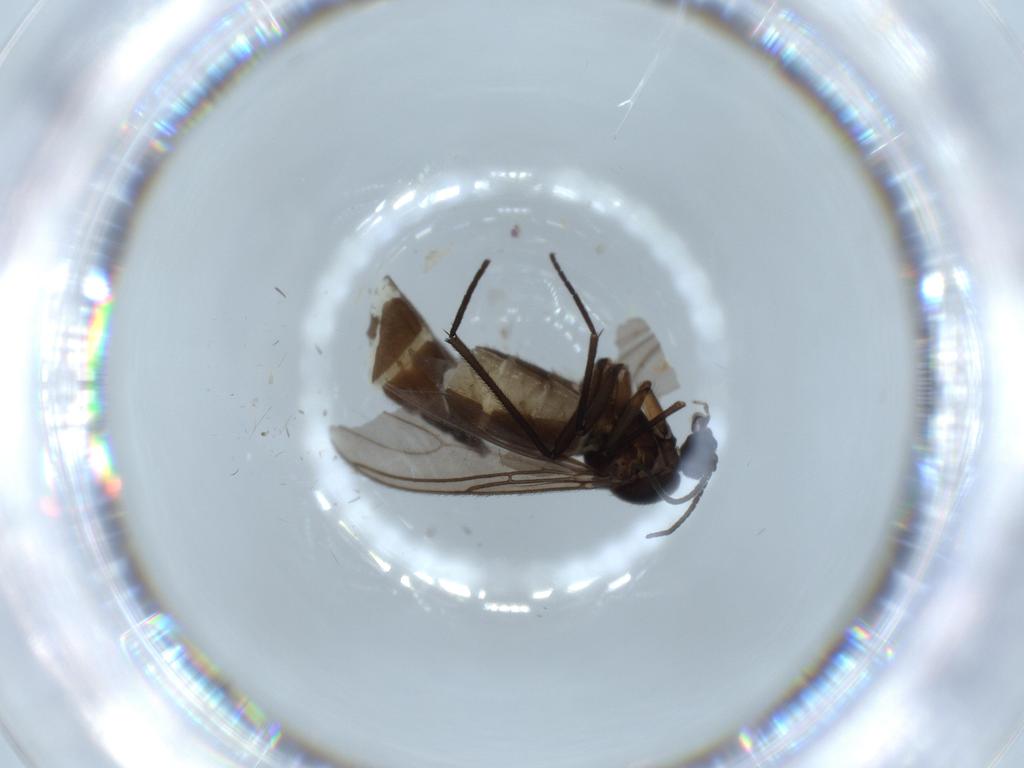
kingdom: Animalia
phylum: Arthropoda
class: Insecta
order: Diptera
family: Sciaridae
